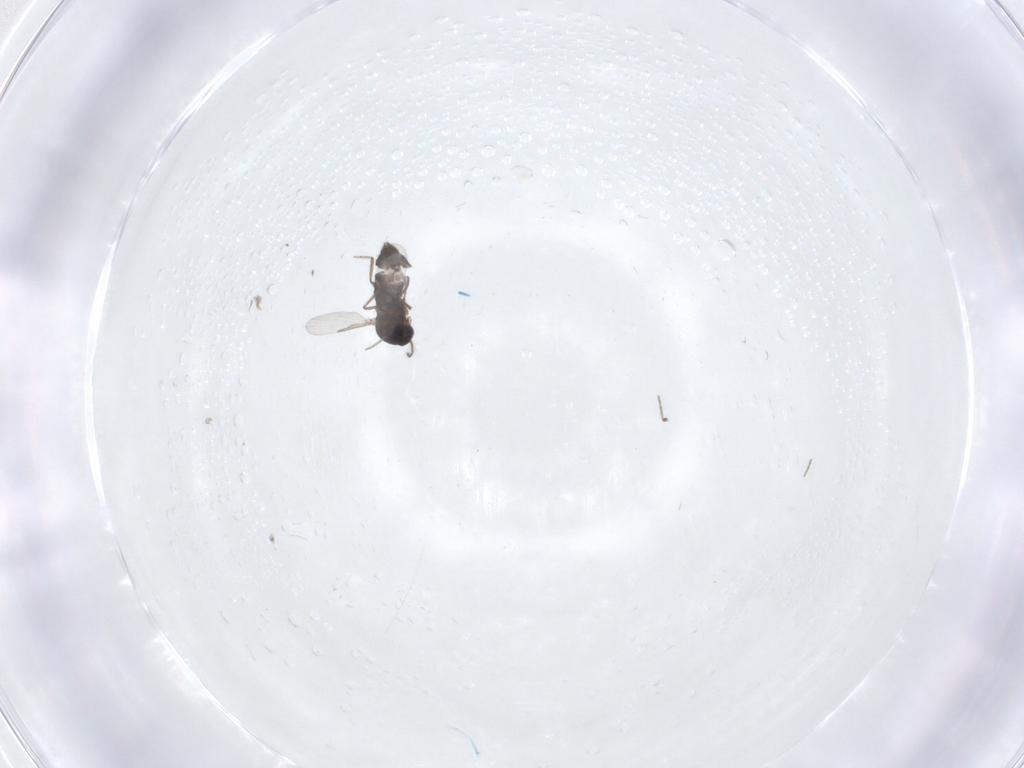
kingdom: Animalia
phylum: Arthropoda
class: Insecta
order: Diptera
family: Ceratopogonidae
